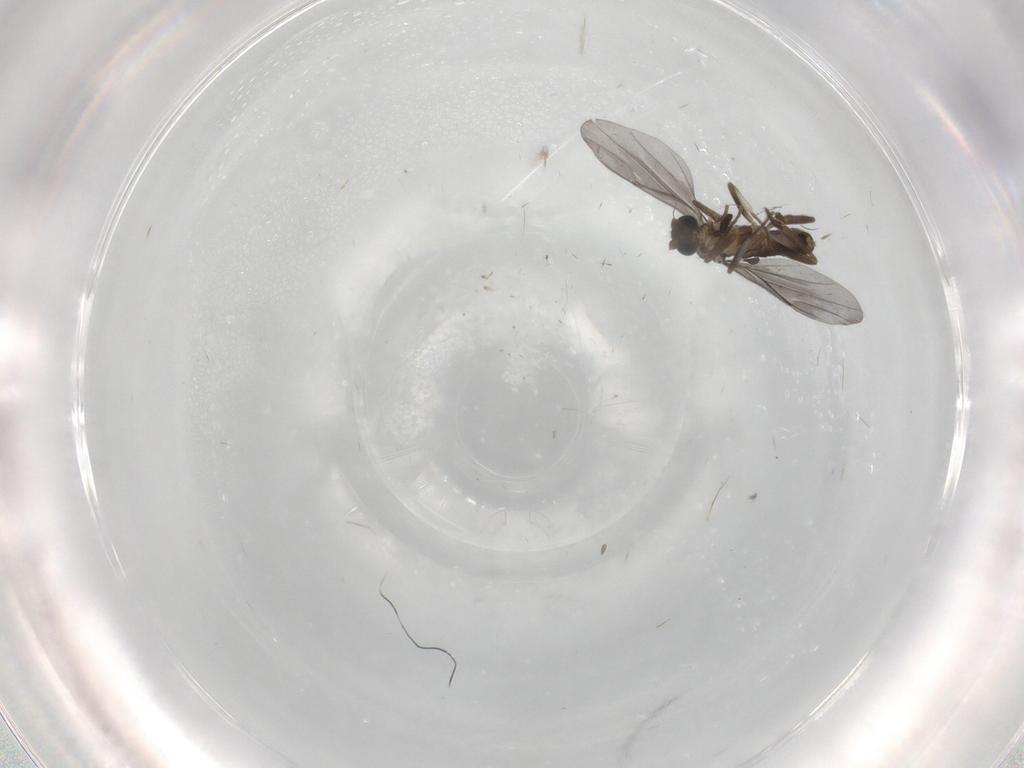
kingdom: Animalia
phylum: Arthropoda
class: Insecta
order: Diptera
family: Phoridae
